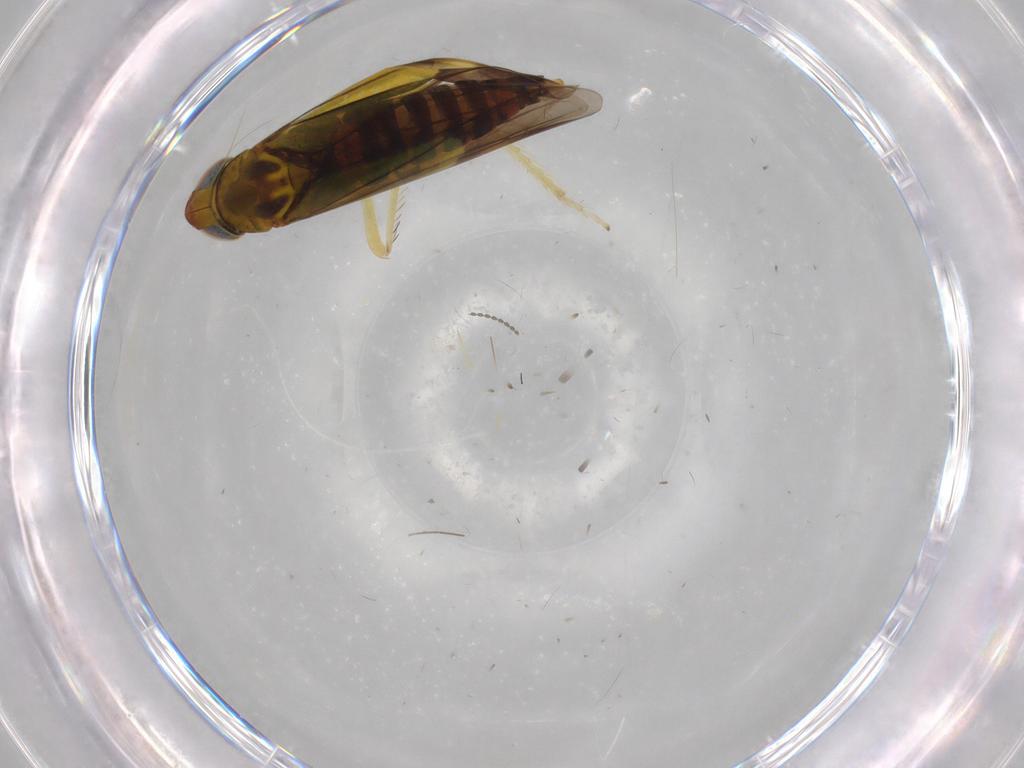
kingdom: Animalia
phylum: Arthropoda
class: Insecta
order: Hemiptera
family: Cicadellidae
